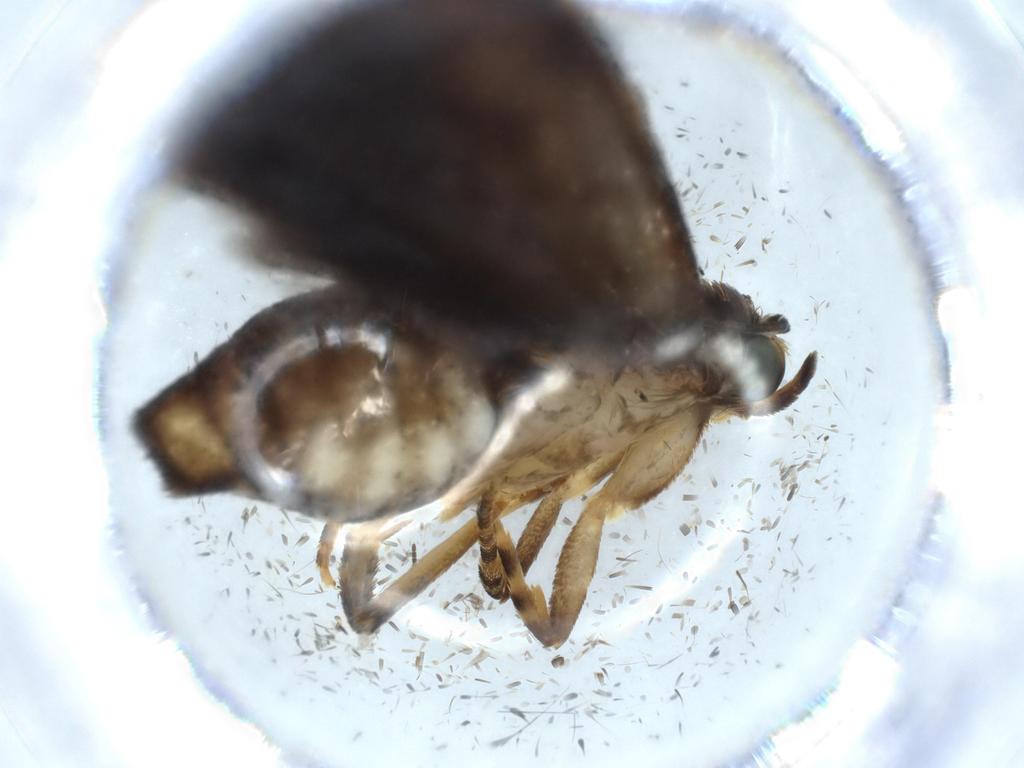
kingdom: Animalia
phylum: Arthropoda
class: Insecta
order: Lepidoptera
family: Immidae
